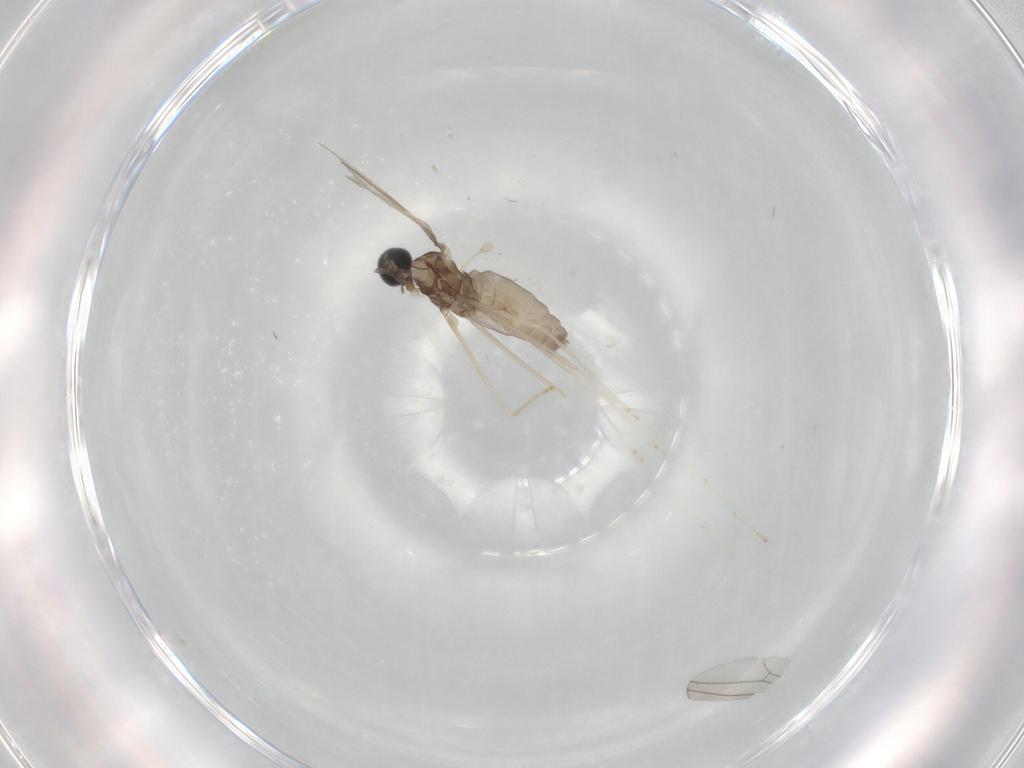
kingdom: Animalia
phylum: Arthropoda
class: Insecta
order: Diptera
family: Cecidomyiidae
